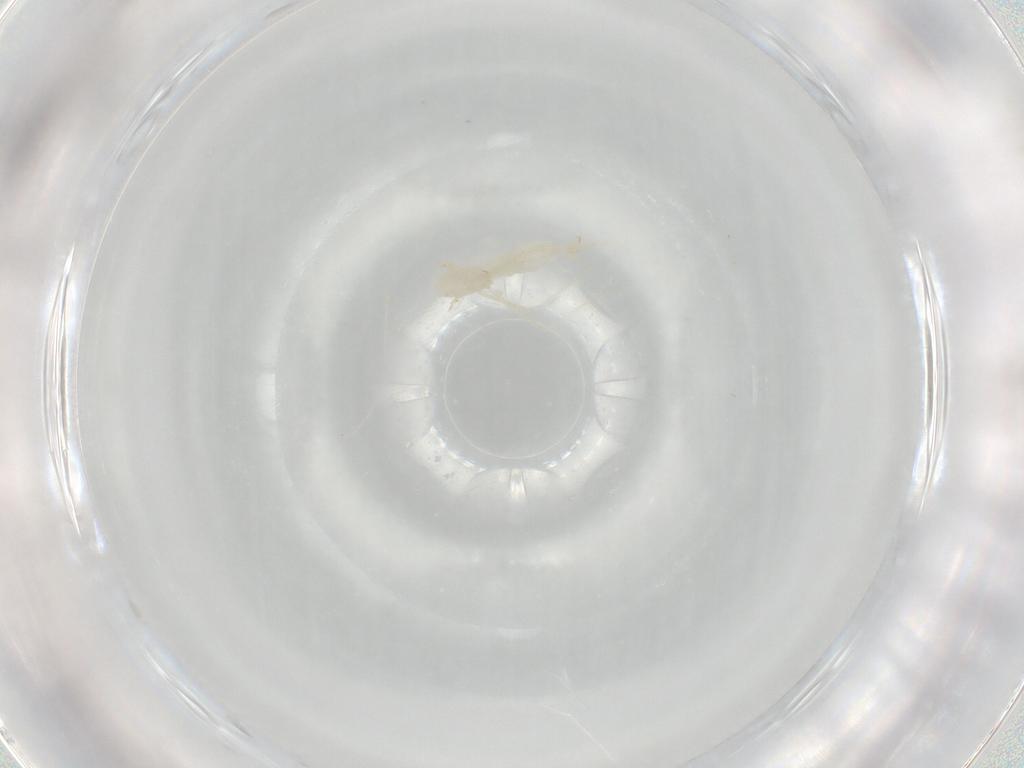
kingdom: Animalia
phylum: Arthropoda
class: Insecta
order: Diptera
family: Cecidomyiidae
